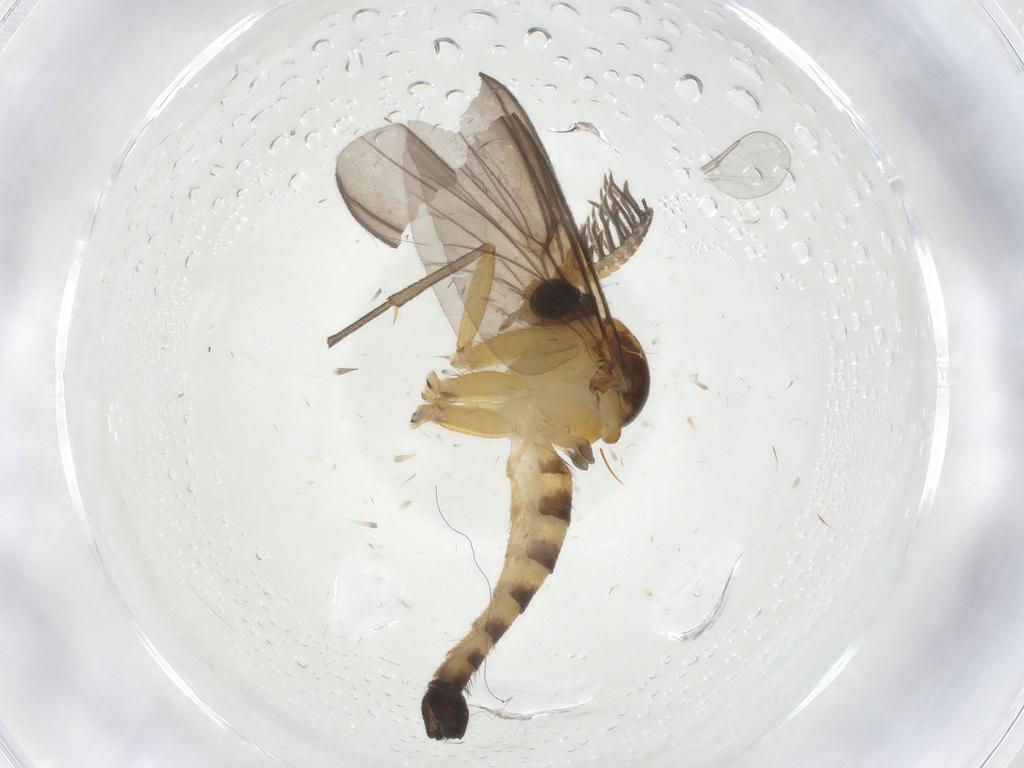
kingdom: Animalia
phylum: Arthropoda
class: Insecta
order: Diptera
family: Mycetophilidae
